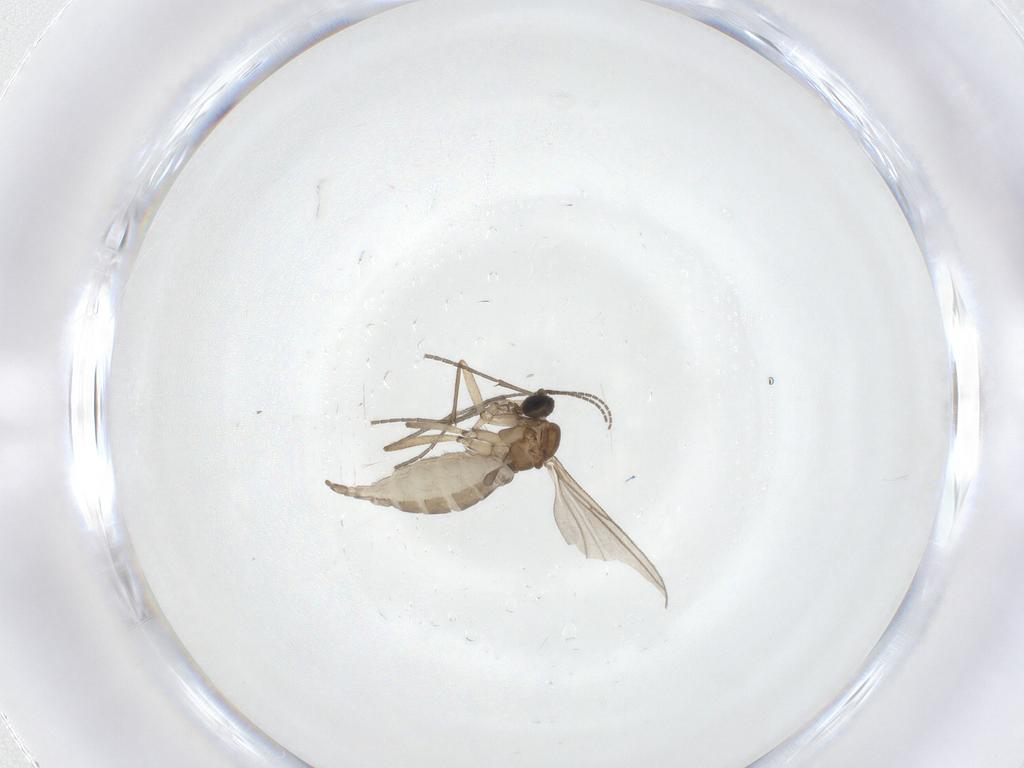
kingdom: Animalia
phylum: Arthropoda
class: Insecta
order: Diptera
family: Sciaridae
